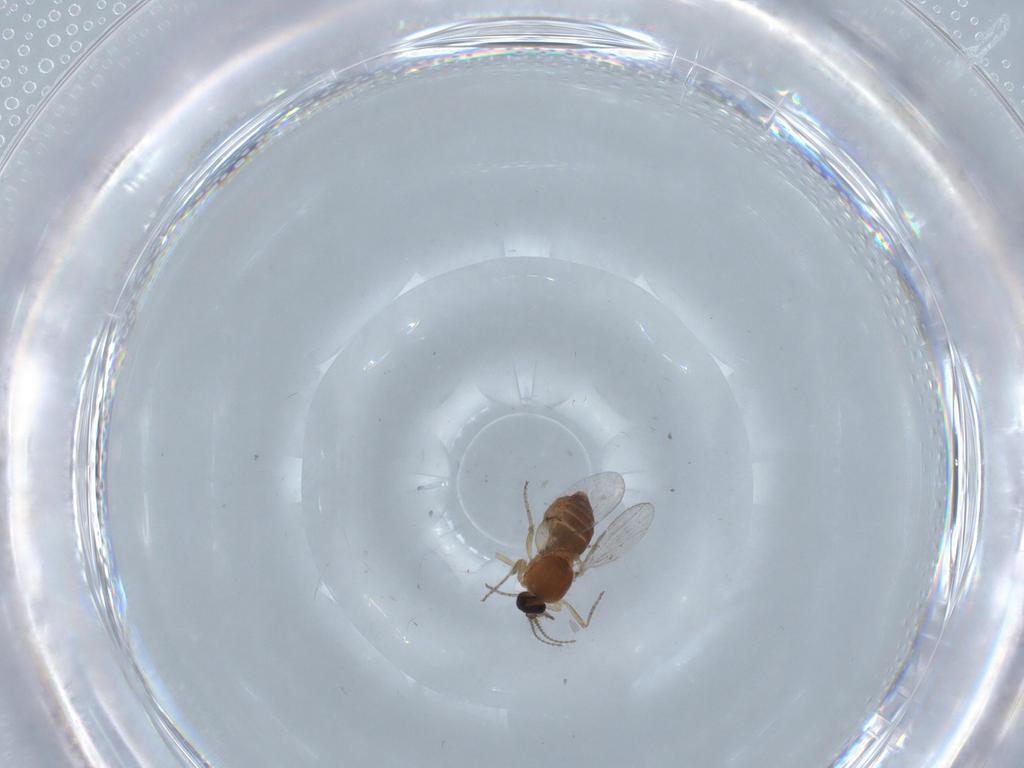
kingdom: Animalia
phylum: Arthropoda
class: Insecta
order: Diptera
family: Ceratopogonidae
